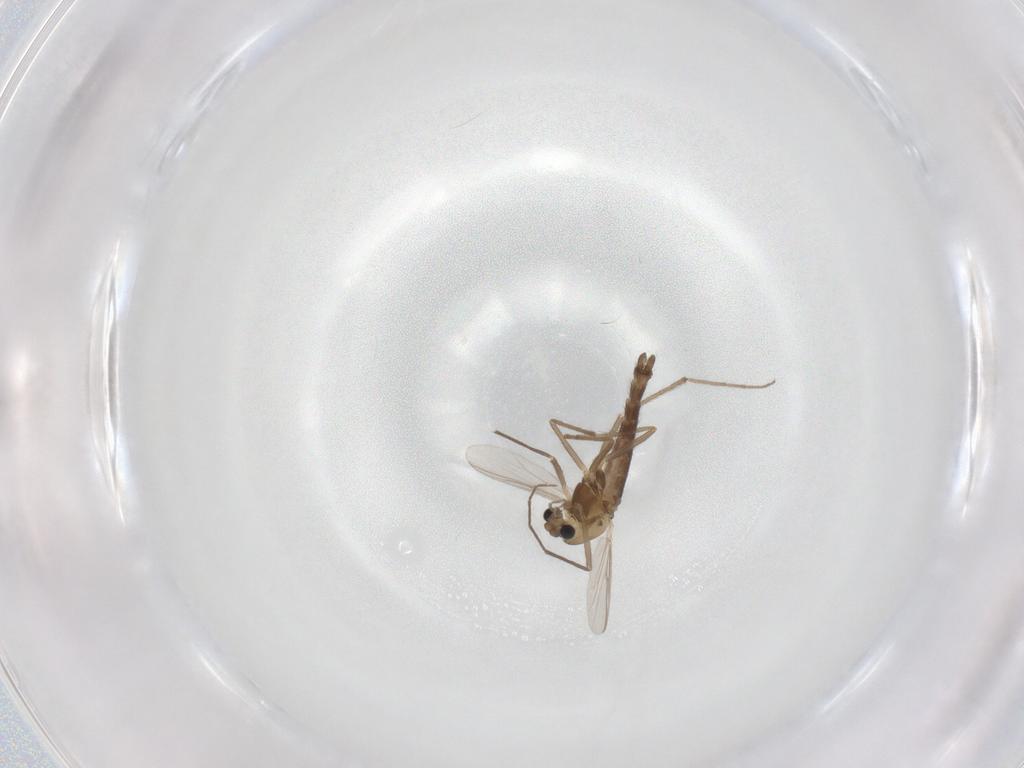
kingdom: Animalia
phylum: Arthropoda
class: Insecta
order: Diptera
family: Chironomidae
